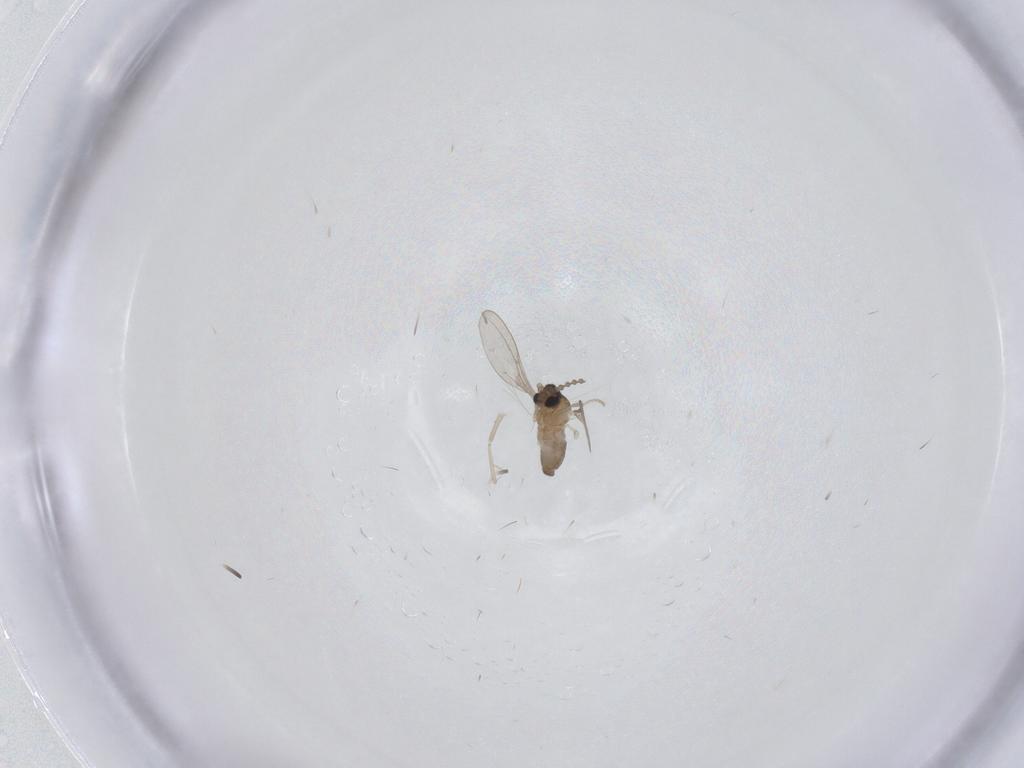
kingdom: Animalia
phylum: Arthropoda
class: Insecta
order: Diptera
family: Cecidomyiidae
